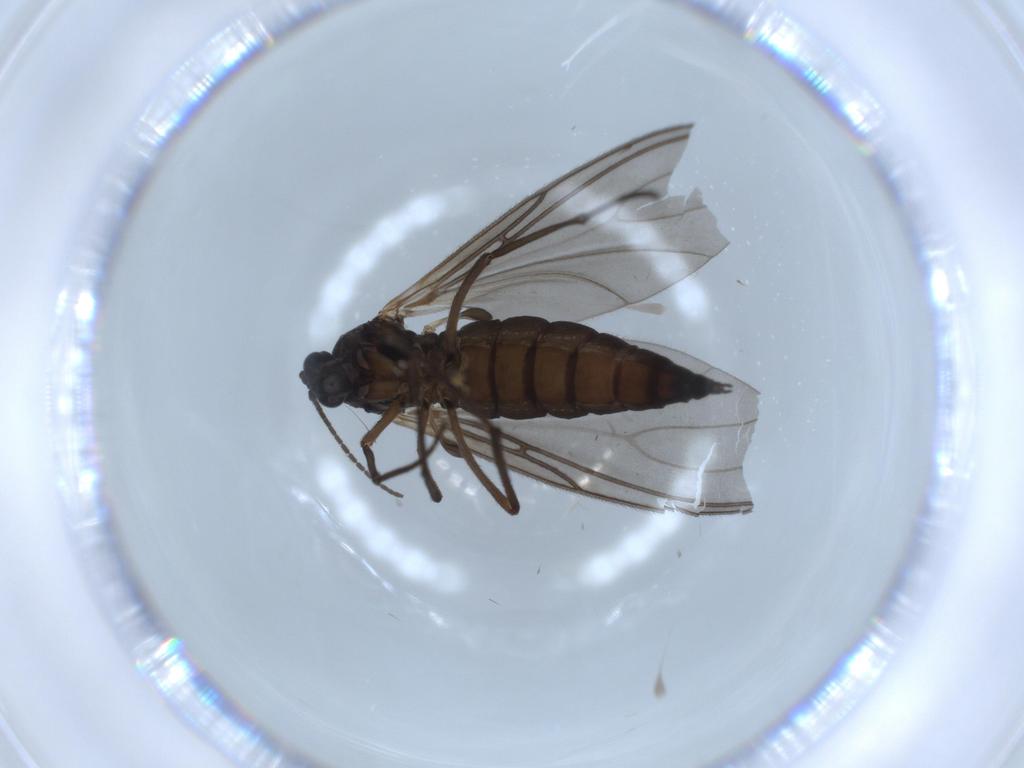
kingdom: Animalia
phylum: Arthropoda
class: Insecta
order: Diptera
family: Sciaridae
